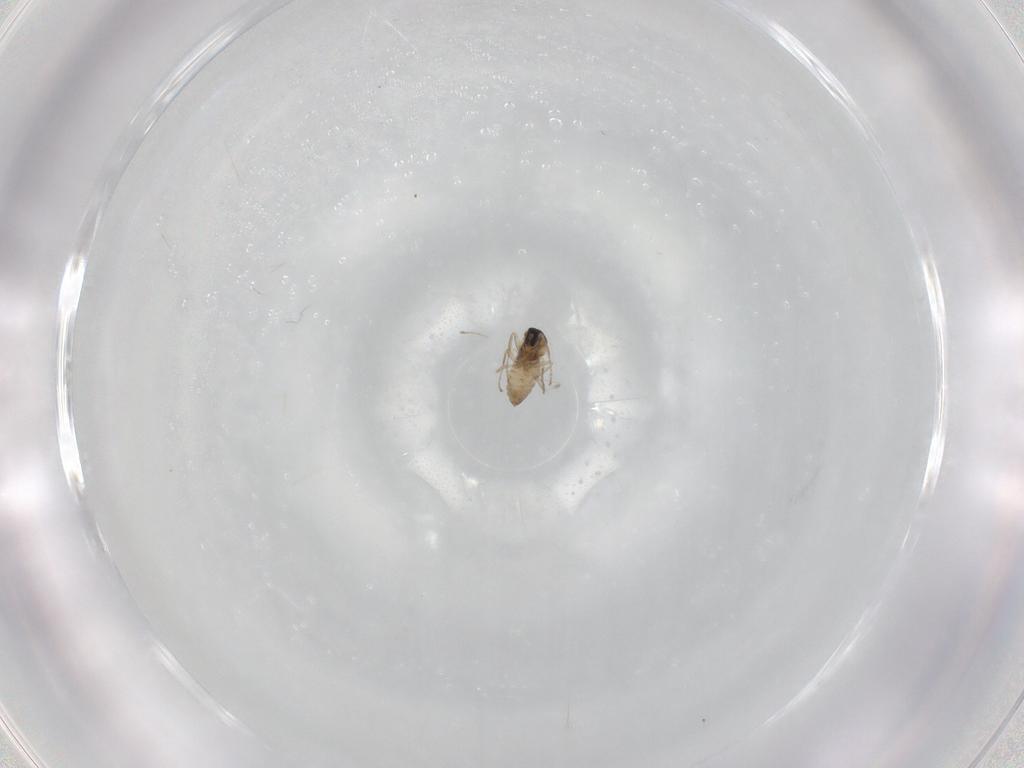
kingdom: Animalia
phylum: Arthropoda
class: Insecta
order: Diptera
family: Cecidomyiidae
